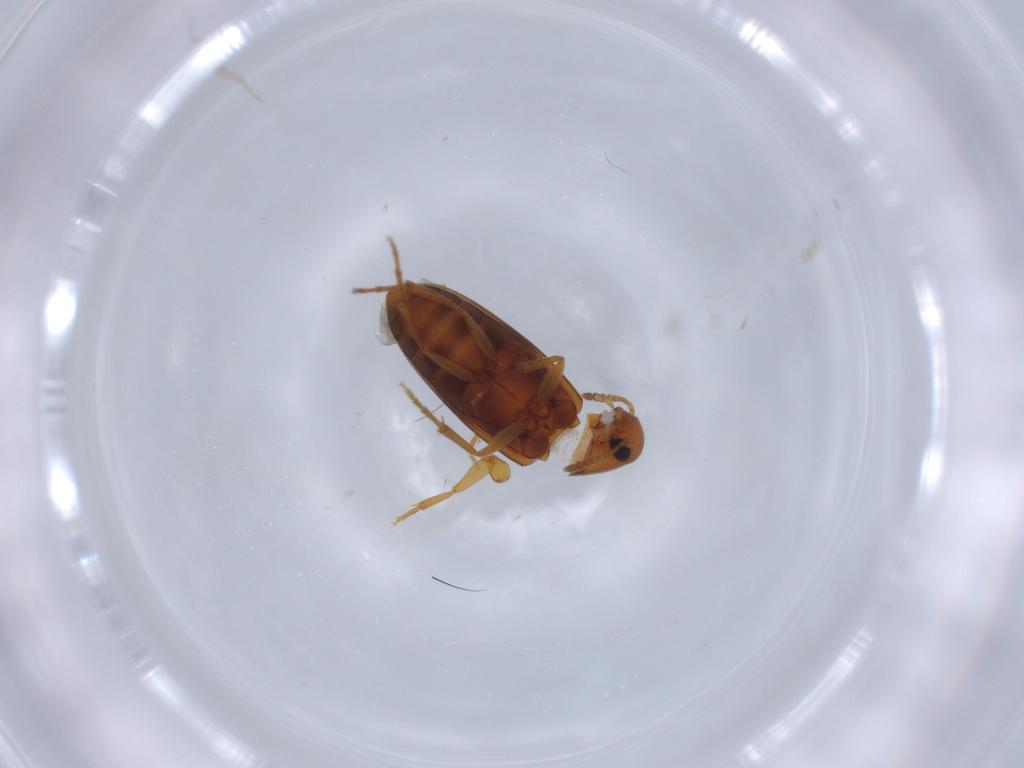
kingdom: Animalia
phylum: Arthropoda
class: Insecta
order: Coleoptera
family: Scraptiidae
